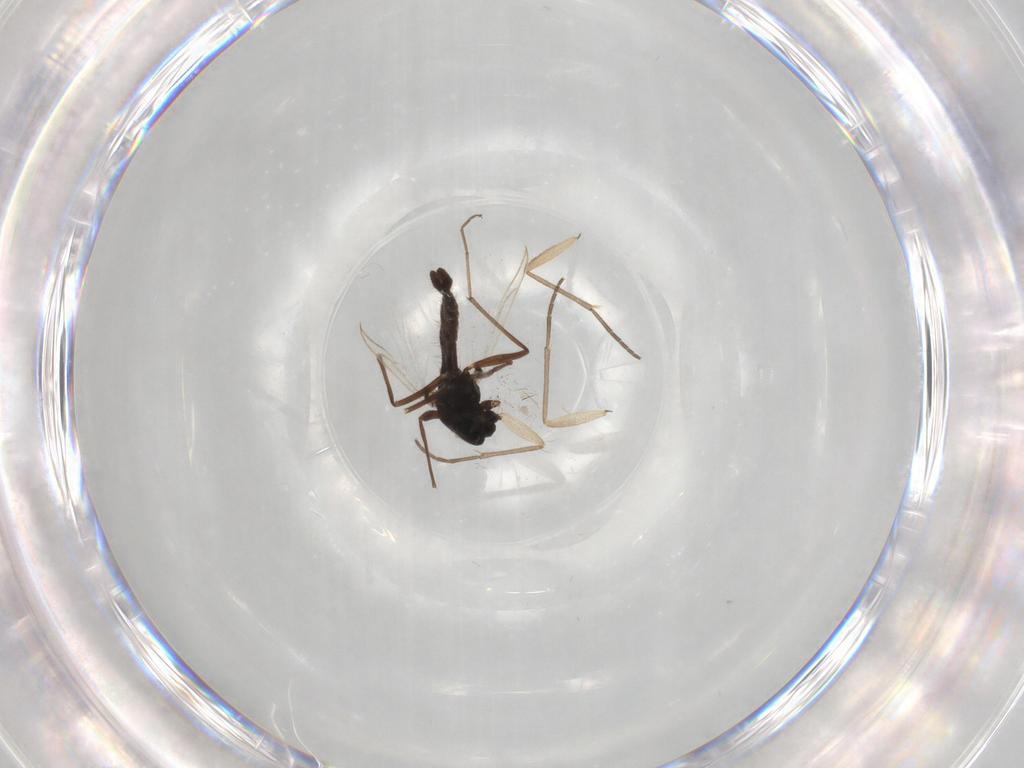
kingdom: Animalia
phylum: Arthropoda
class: Insecta
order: Diptera
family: Sciaridae
